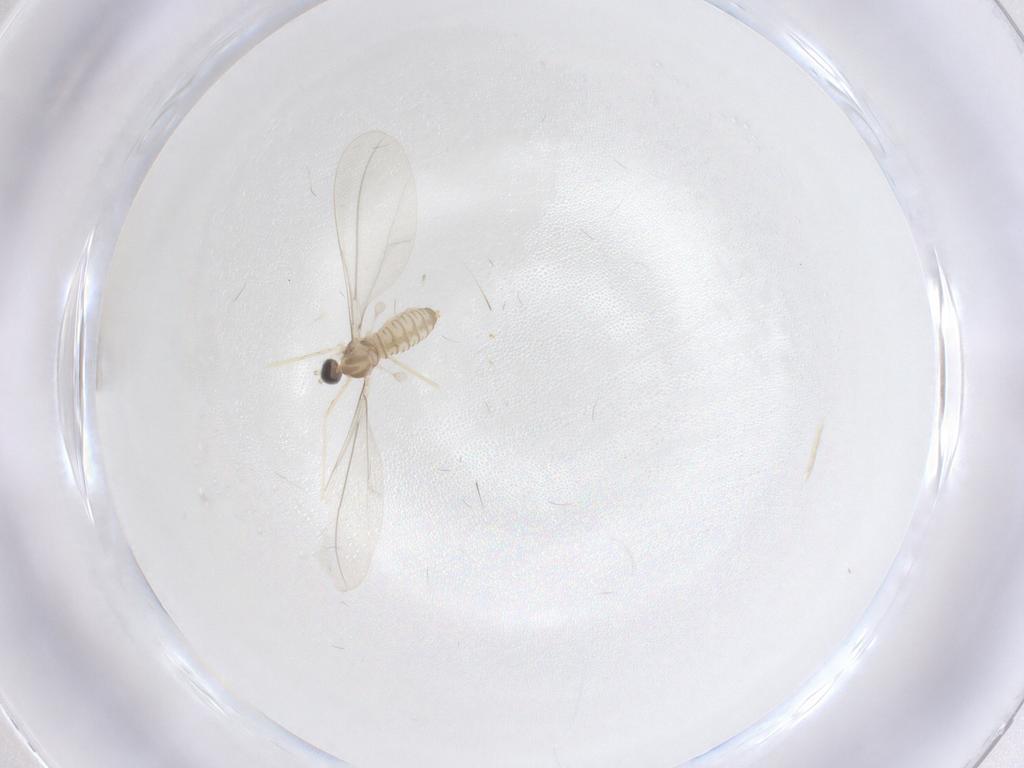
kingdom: Animalia
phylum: Arthropoda
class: Insecta
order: Diptera
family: Cecidomyiidae
